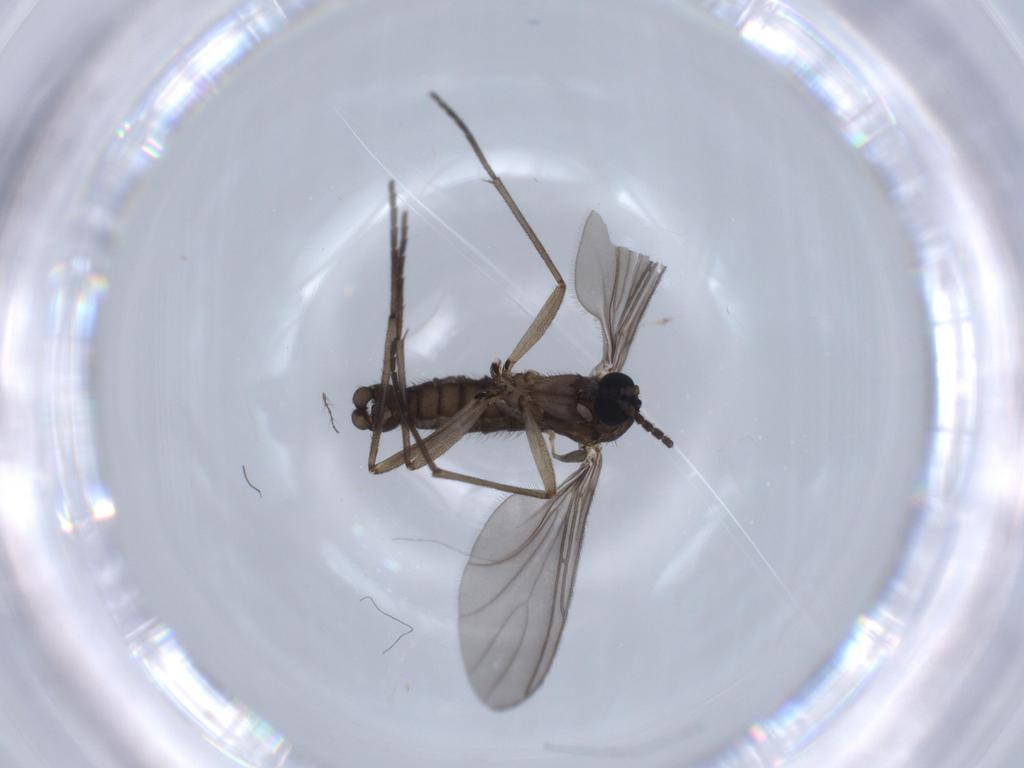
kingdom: Animalia
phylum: Arthropoda
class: Insecta
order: Diptera
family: Sciaridae
